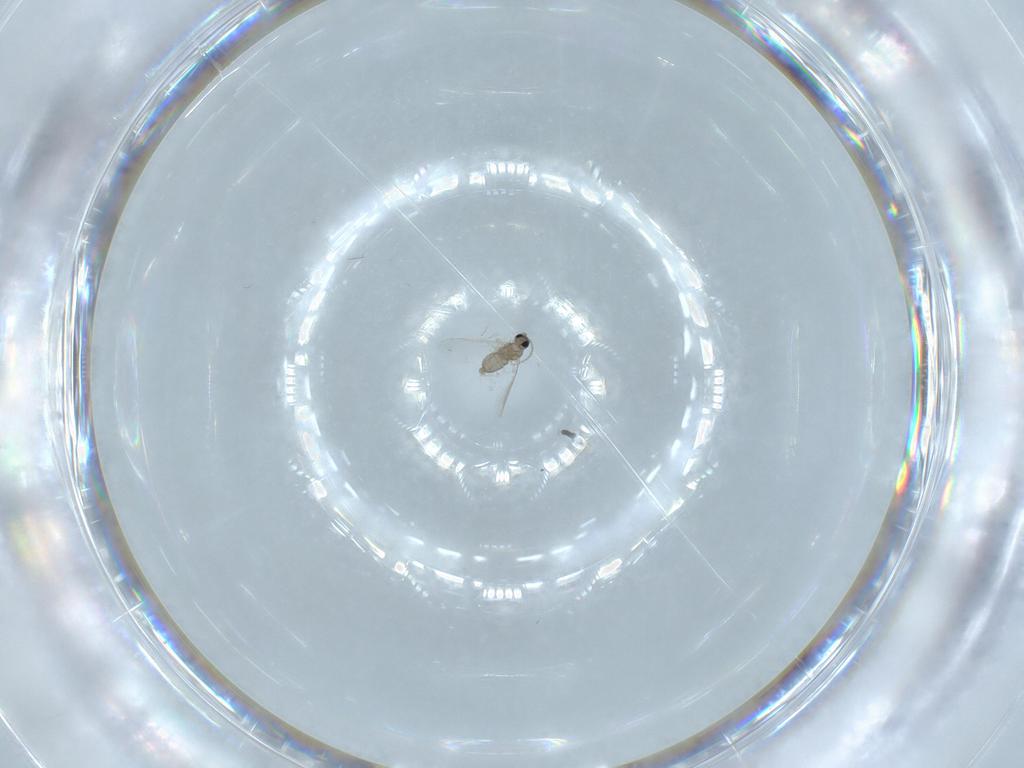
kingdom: Animalia
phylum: Arthropoda
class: Insecta
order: Diptera
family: Cecidomyiidae
